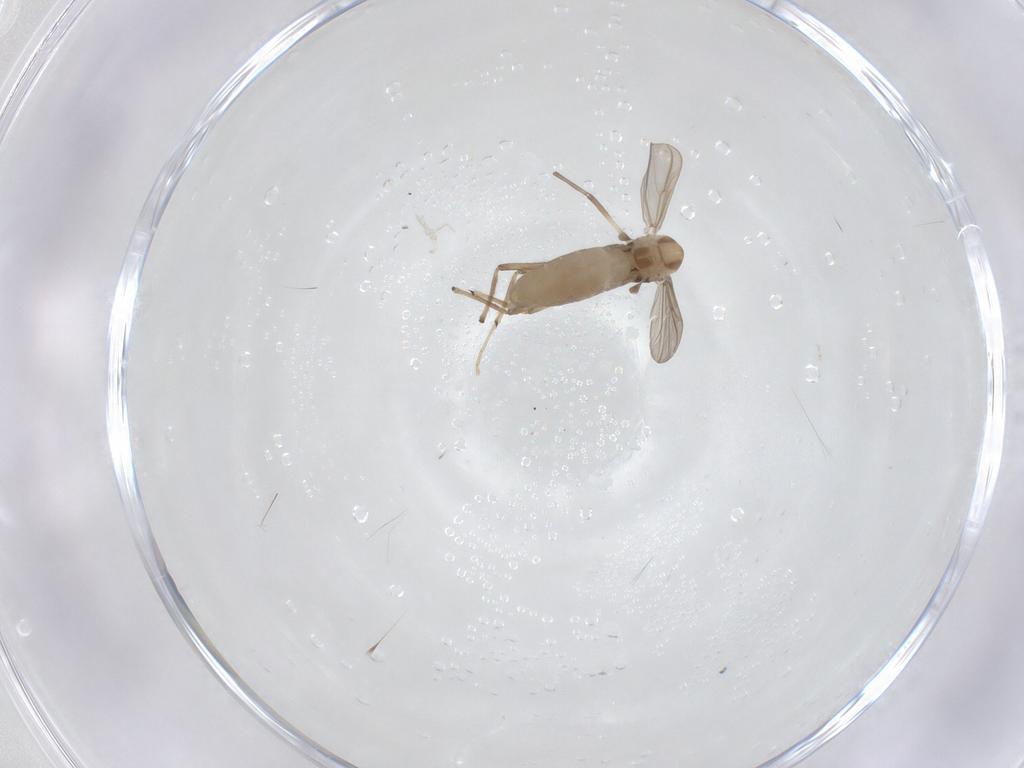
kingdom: Animalia
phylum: Arthropoda
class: Insecta
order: Diptera
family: Chironomidae
